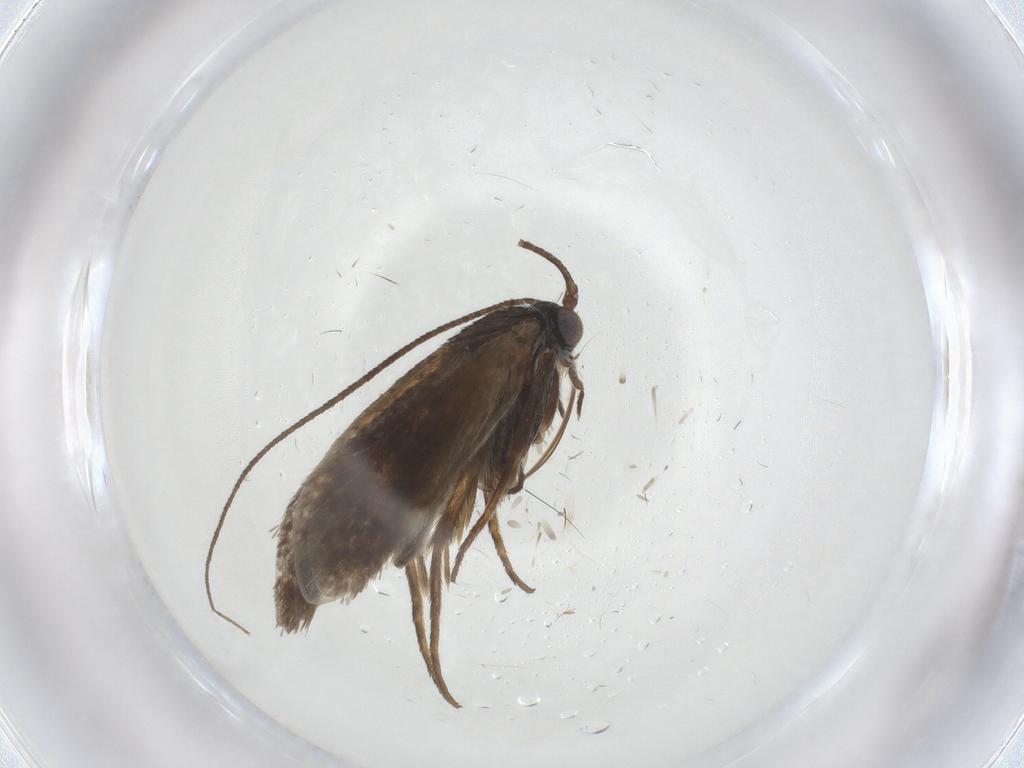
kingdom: Animalia
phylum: Arthropoda
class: Insecta
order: Lepidoptera
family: Adelidae
